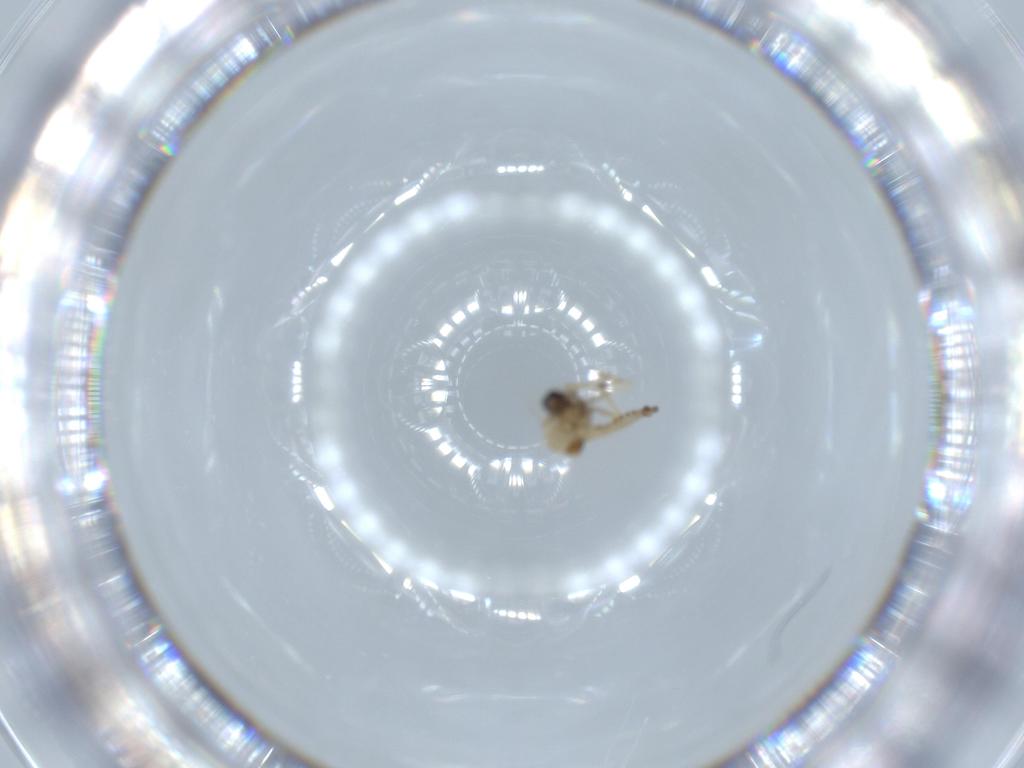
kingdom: Animalia
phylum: Arthropoda
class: Insecta
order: Diptera
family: Ceratopogonidae
